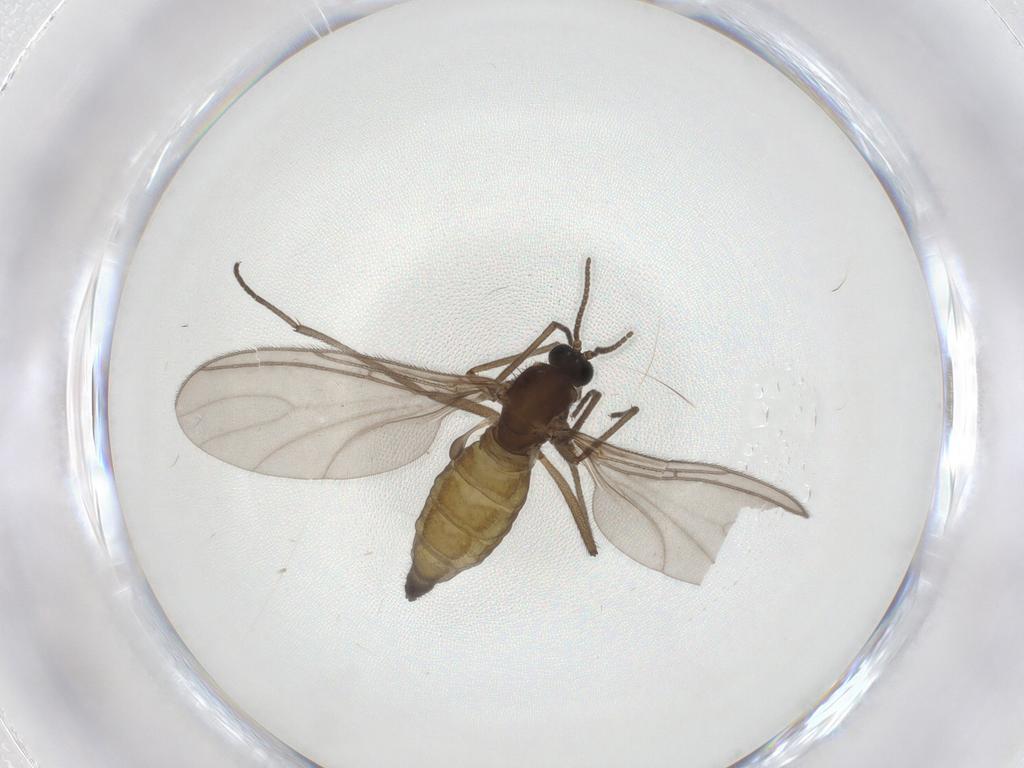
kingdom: Animalia
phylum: Arthropoda
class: Insecta
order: Diptera
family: Sciaridae
